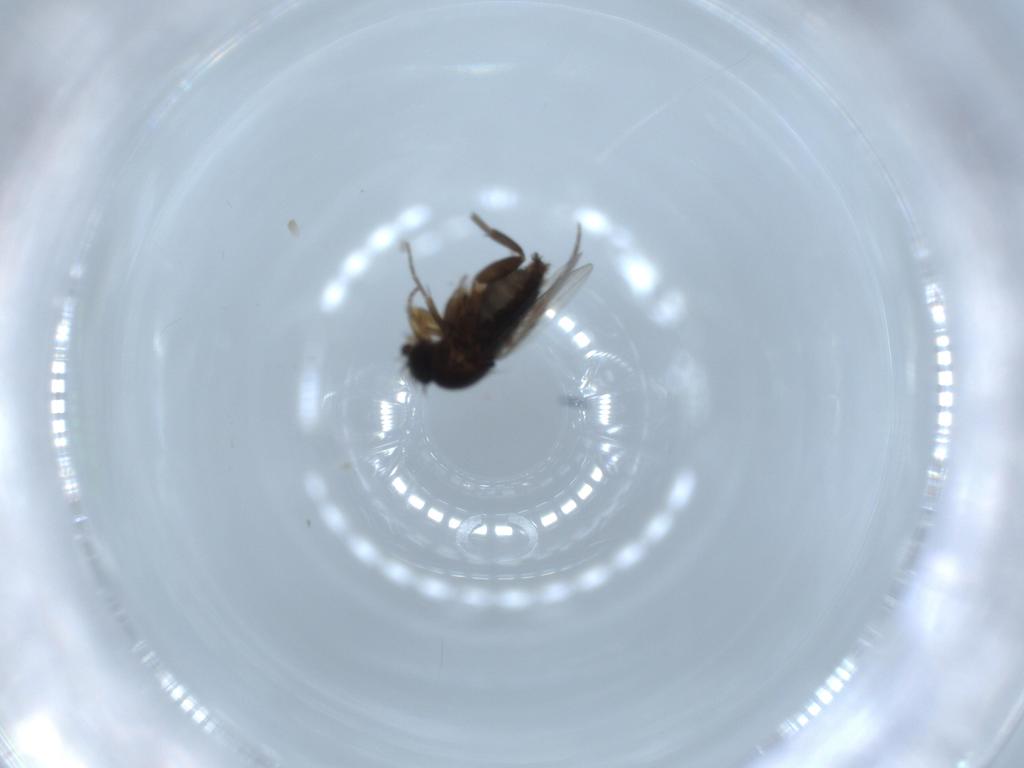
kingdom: Animalia
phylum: Arthropoda
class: Insecta
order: Diptera
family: Phoridae
